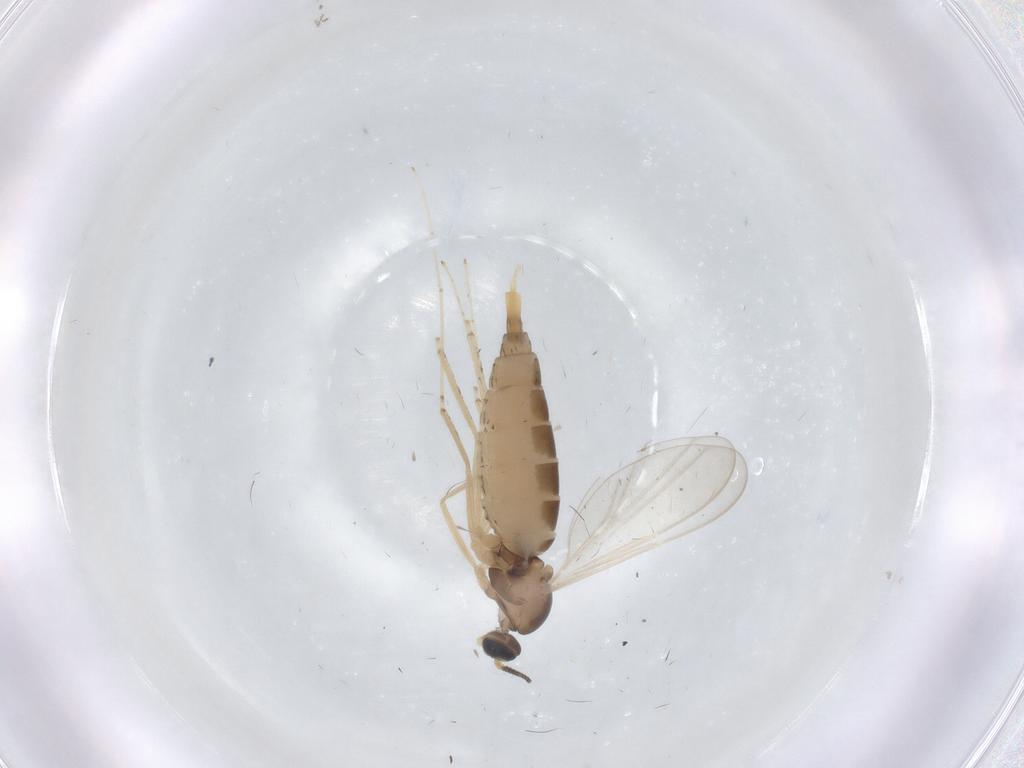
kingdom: Animalia
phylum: Arthropoda
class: Insecta
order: Diptera
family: Cecidomyiidae
